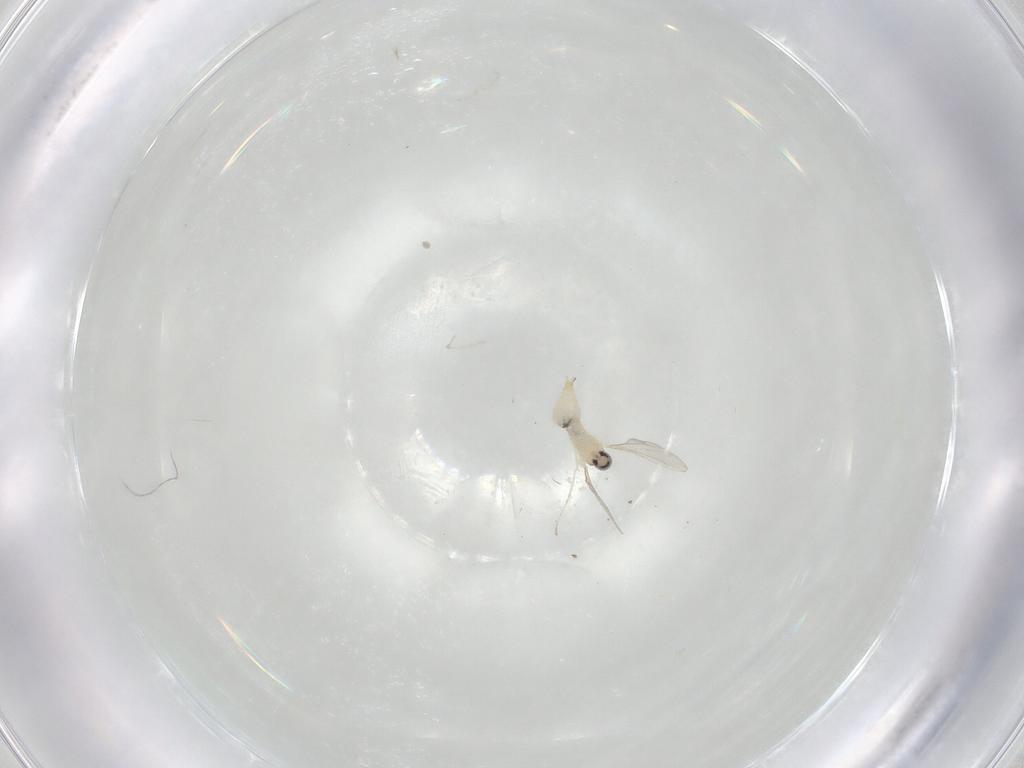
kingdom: Animalia
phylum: Arthropoda
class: Insecta
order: Diptera
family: Cecidomyiidae
